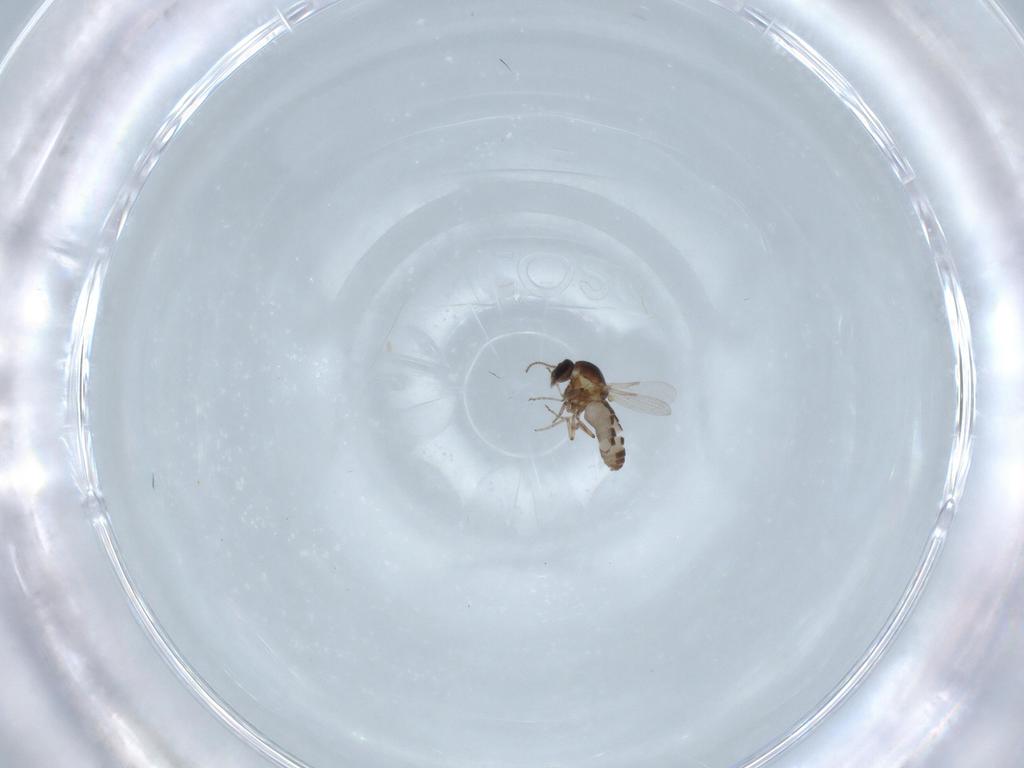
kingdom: Animalia
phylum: Arthropoda
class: Insecta
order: Diptera
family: Ceratopogonidae
